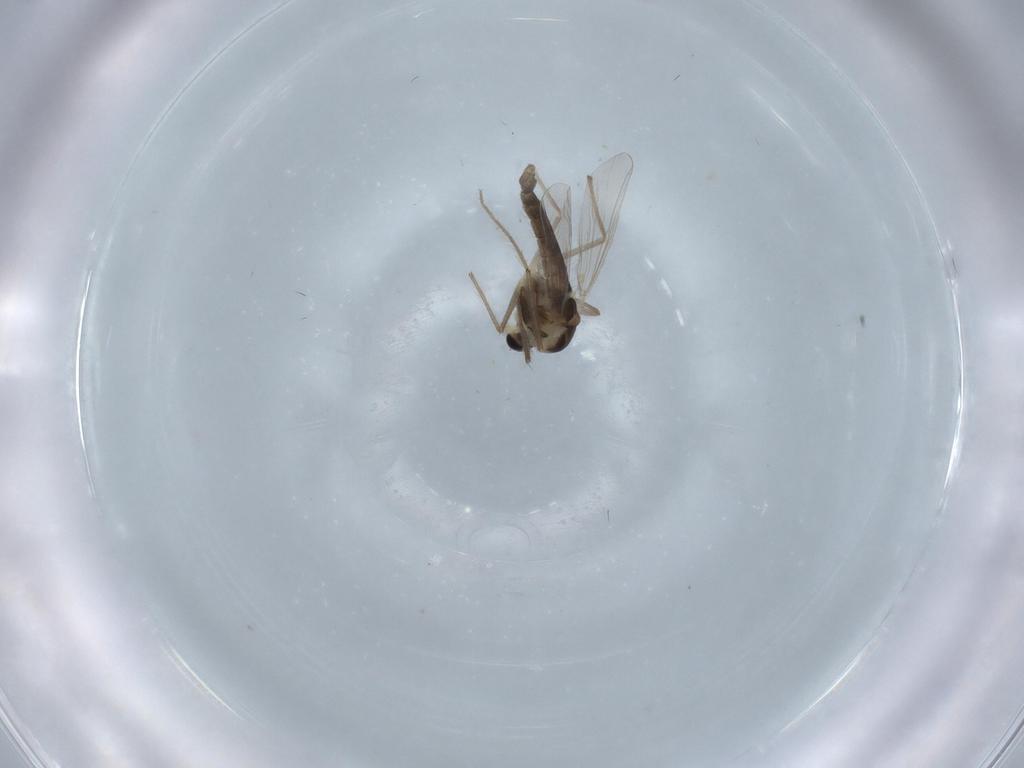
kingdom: Animalia
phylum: Arthropoda
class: Insecta
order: Diptera
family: Chironomidae
